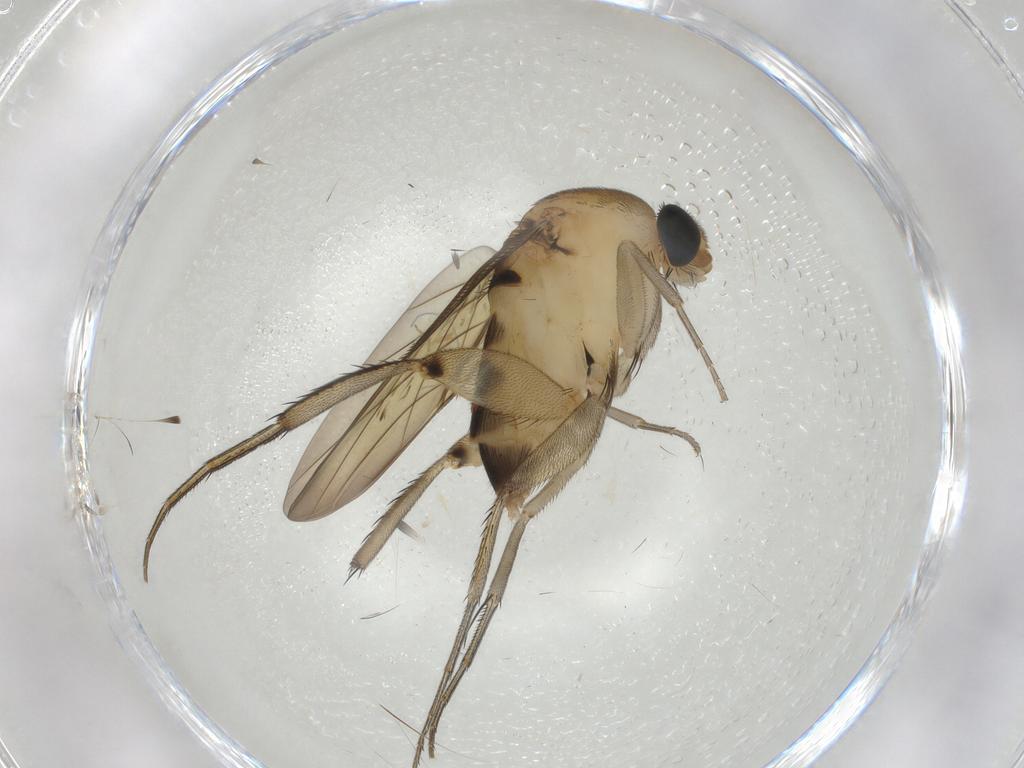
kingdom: Animalia
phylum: Arthropoda
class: Insecta
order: Diptera
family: Phoridae
